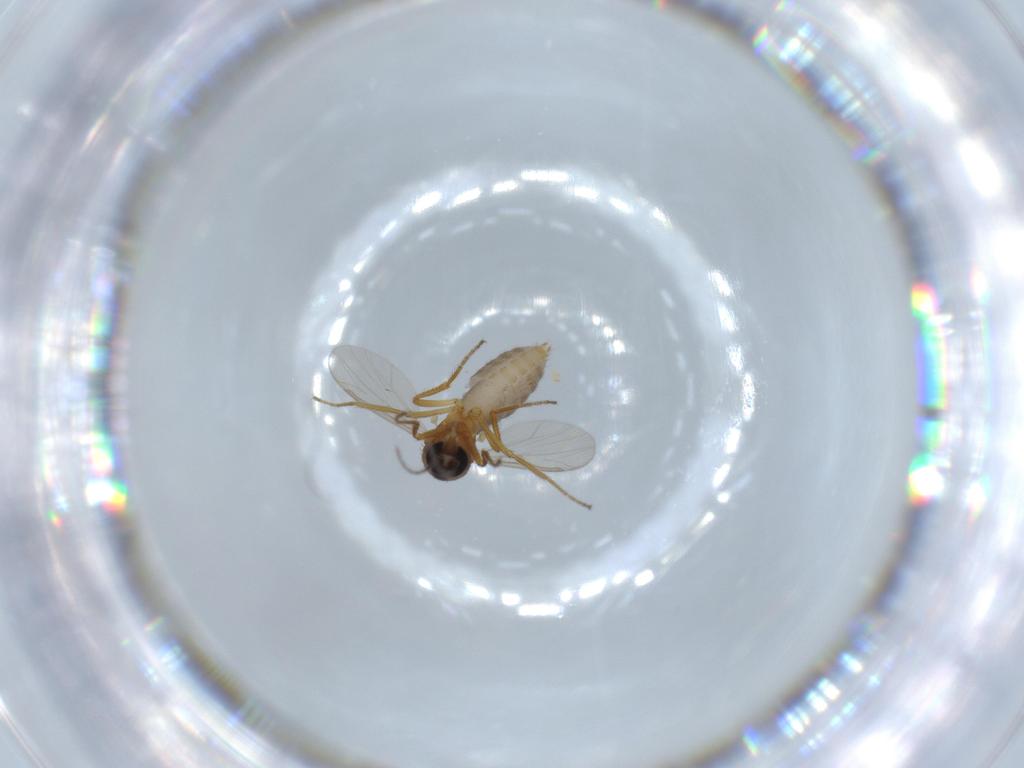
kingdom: Animalia
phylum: Arthropoda
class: Insecta
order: Diptera
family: Ceratopogonidae
